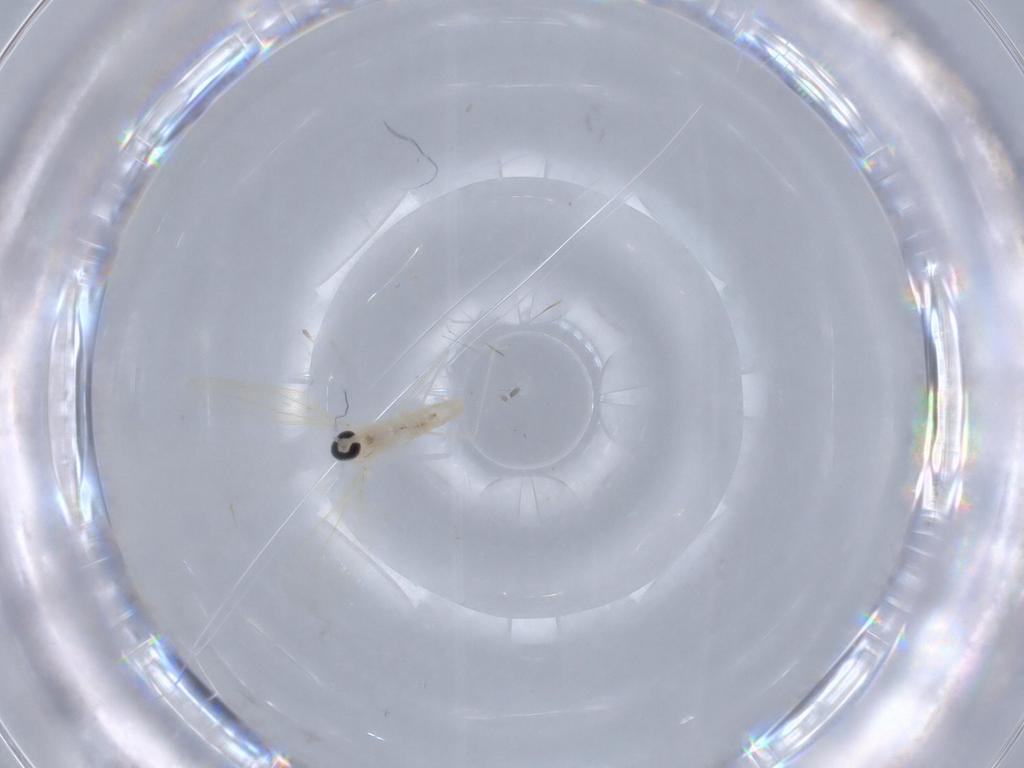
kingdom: Animalia
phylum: Arthropoda
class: Insecta
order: Diptera
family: Cecidomyiidae
